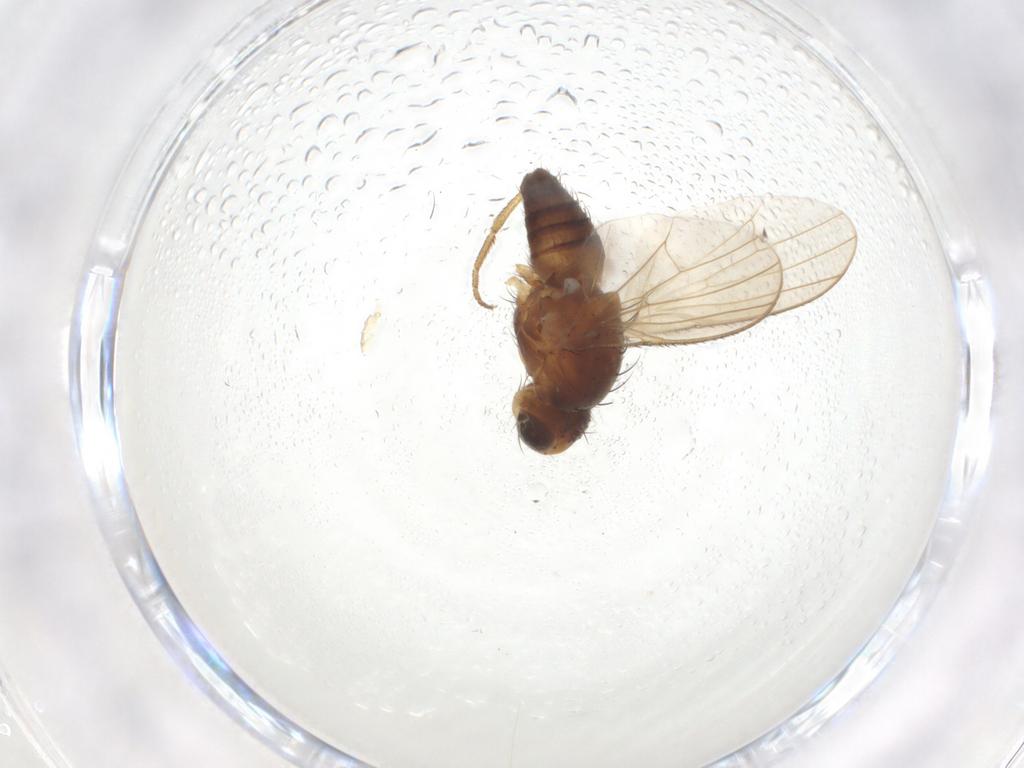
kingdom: Animalia
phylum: Arthropoda
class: Insecta
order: Diptera
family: Heleomyzidae
